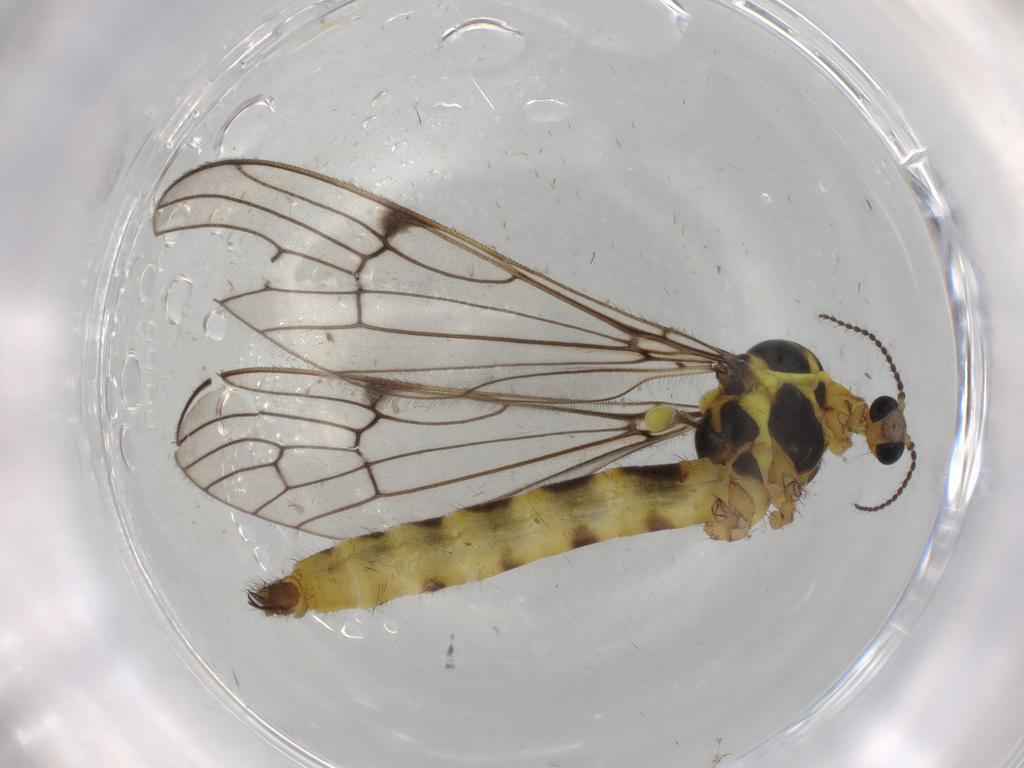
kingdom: Animalia
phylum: Arthropoda
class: Insecta
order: Diptera
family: Limoniidae
